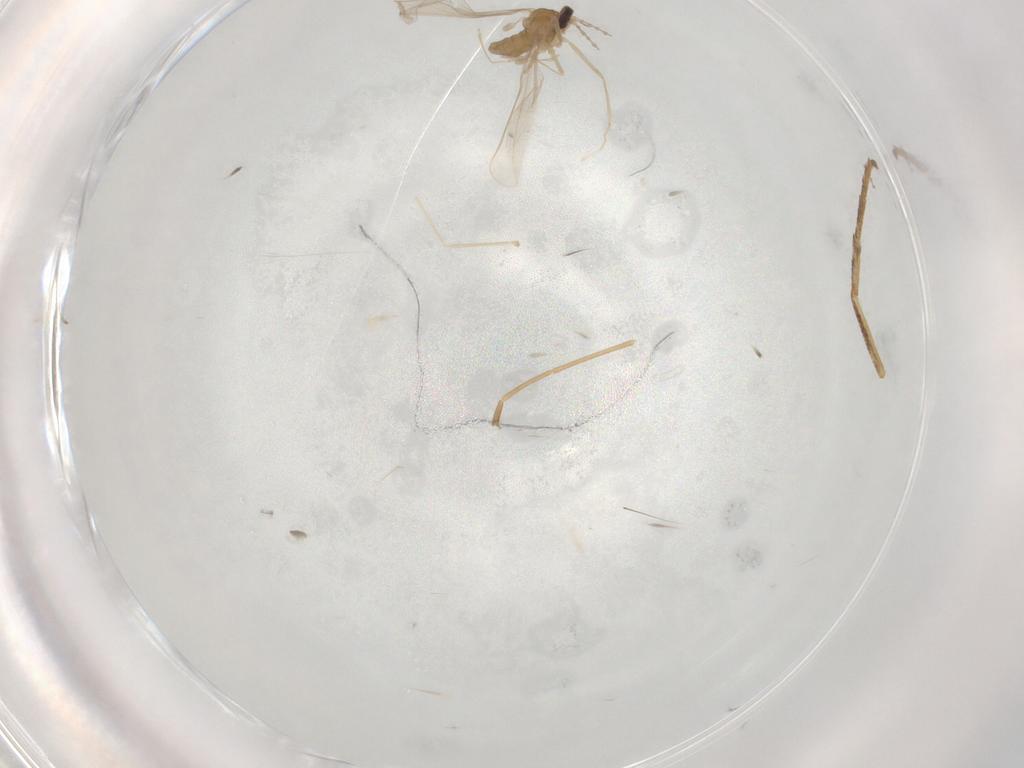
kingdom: Animalia
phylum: Arthropoda
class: Insecta
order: Diptera
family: Cecidomyiidae
